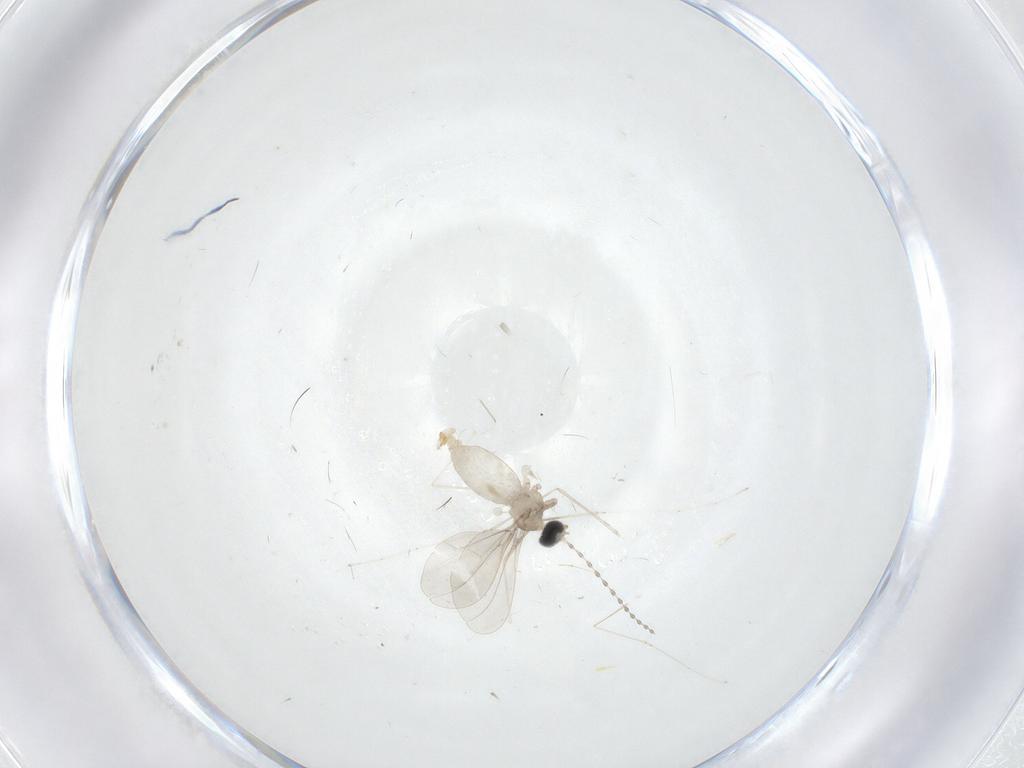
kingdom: Animalia
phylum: Arthropoda
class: Insecta
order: Diptera
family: Cecidomyiidae
